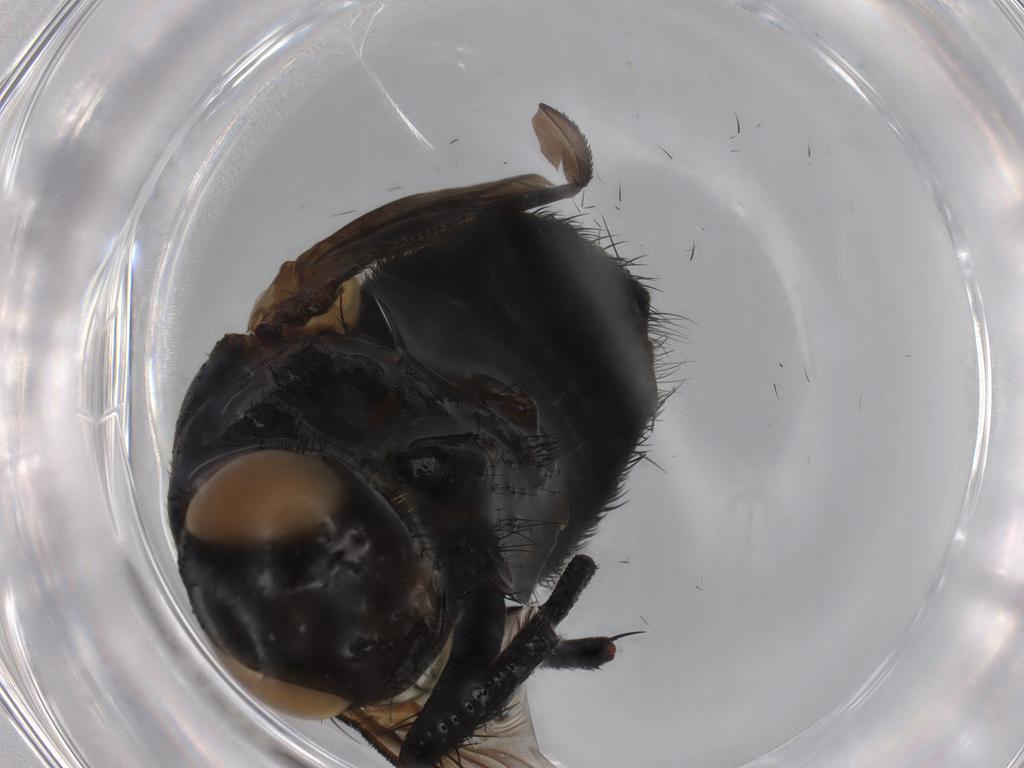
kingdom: Animalia
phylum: Arthropoda
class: Insecta
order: Diptera
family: Tachinidae
